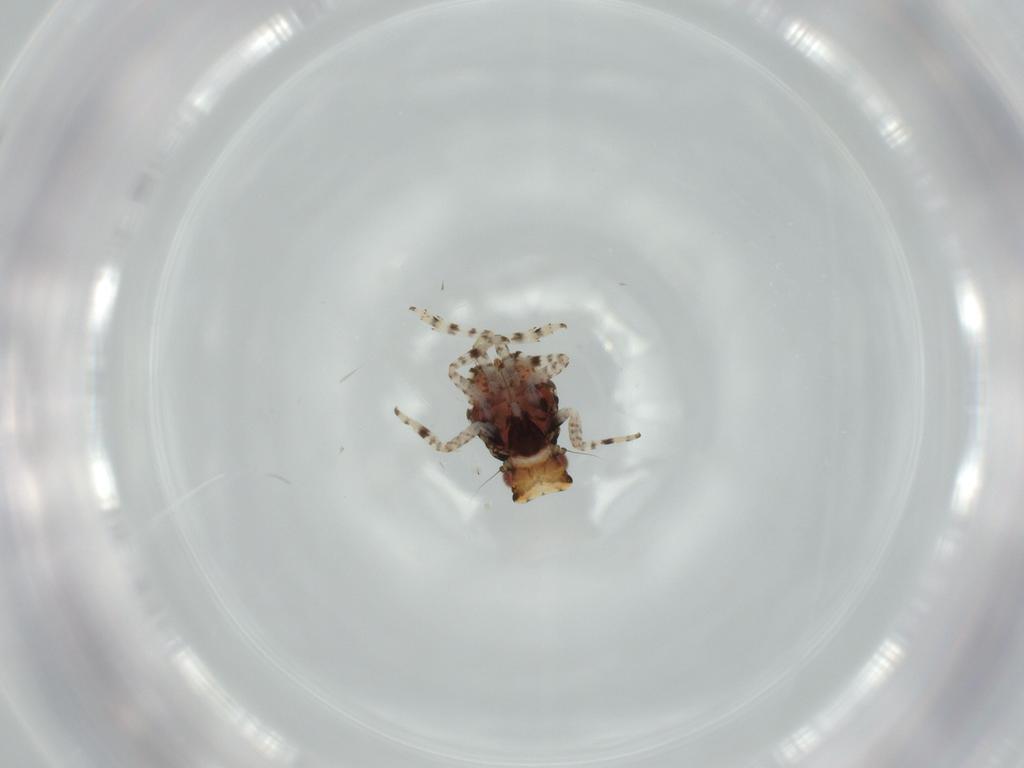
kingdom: Animalia
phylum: Arthropoda
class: Insecta
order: Hemiptera
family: Fulgoroidea_incertae_sedis
